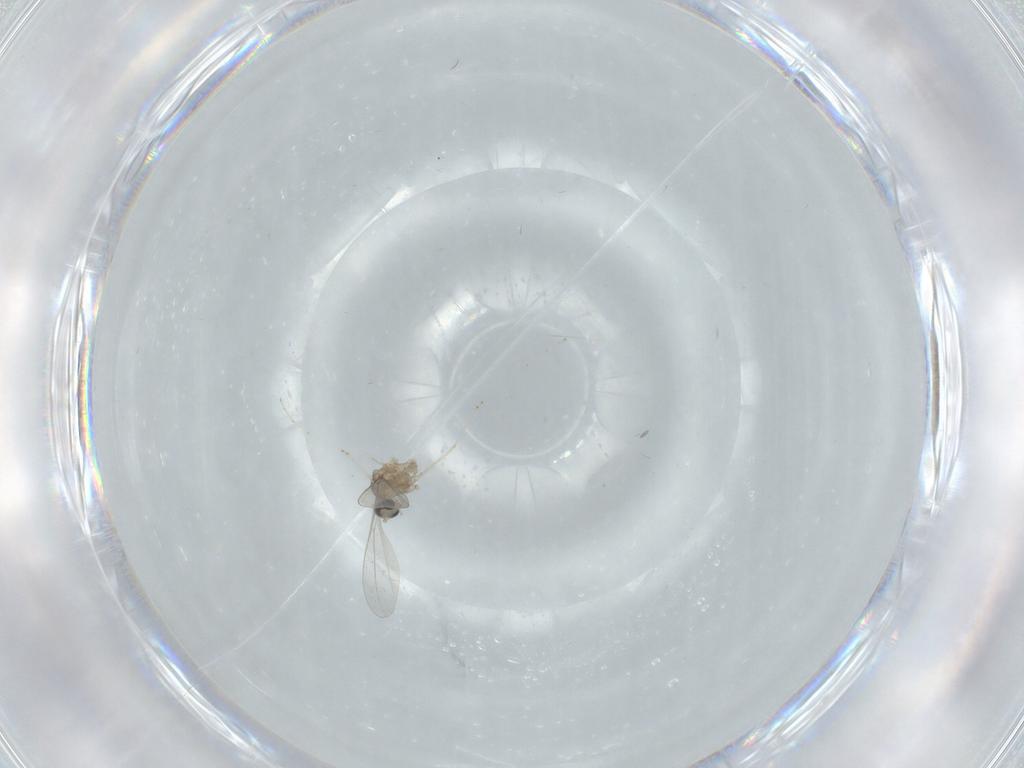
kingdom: Animalia
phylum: Arthropoda
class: Insecta
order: Diptera
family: Cecidomyiidae
